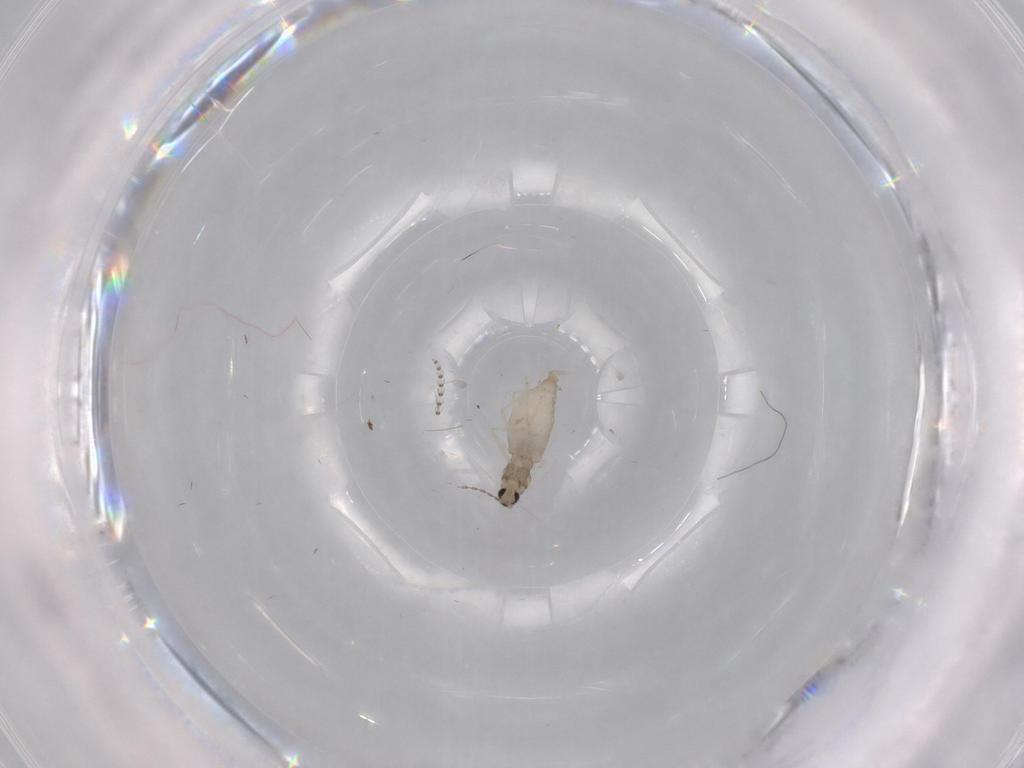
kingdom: Animalia
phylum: Arthropoda
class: Insecta
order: Diptera
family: Cecidomyiidae
